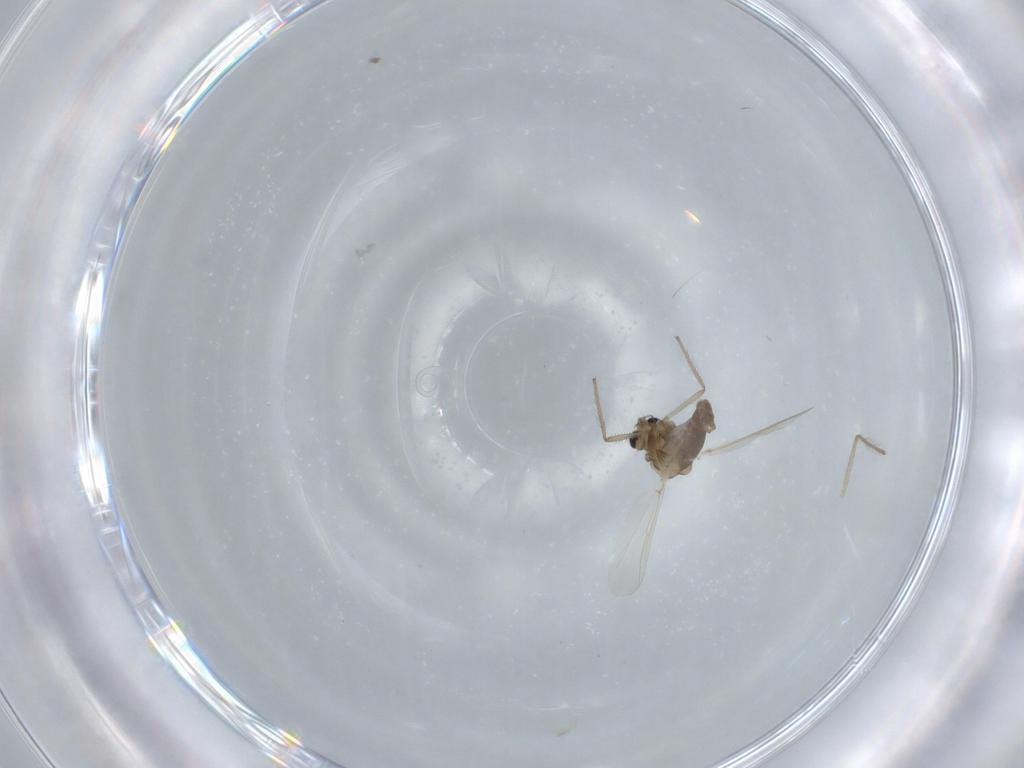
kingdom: Animalia
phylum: Arthropoda
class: Insecta
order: Diptera
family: Chironomidae
